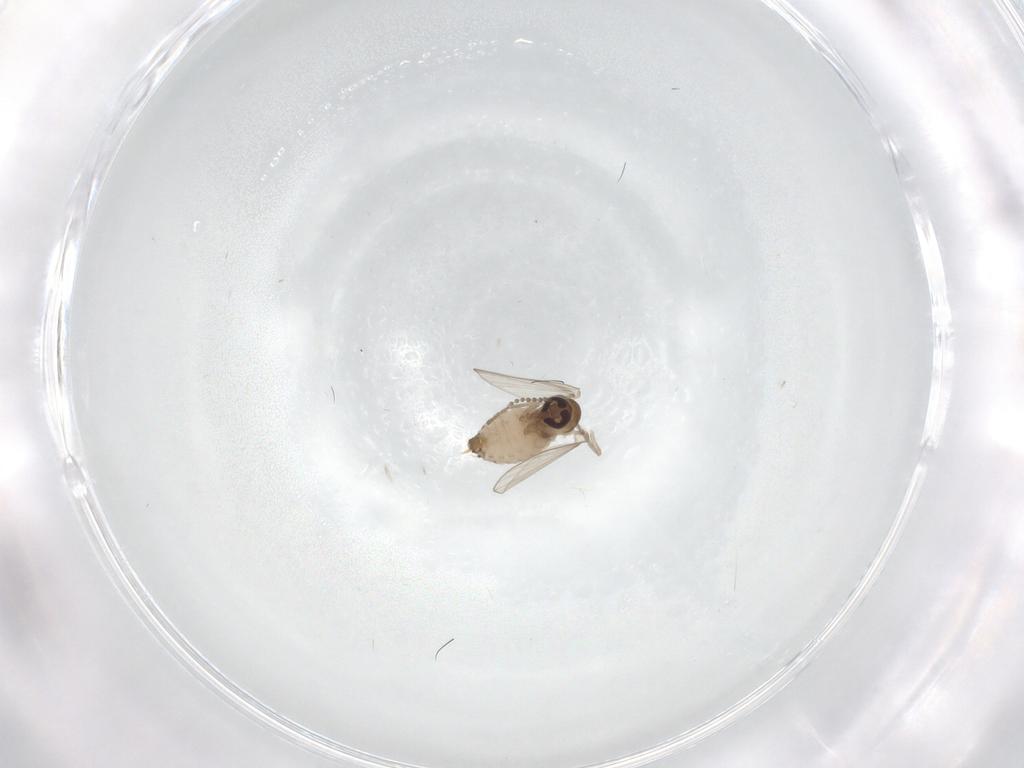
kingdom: Animalia
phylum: Arthropoda
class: Insecta
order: Diptera
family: Psychodidae
